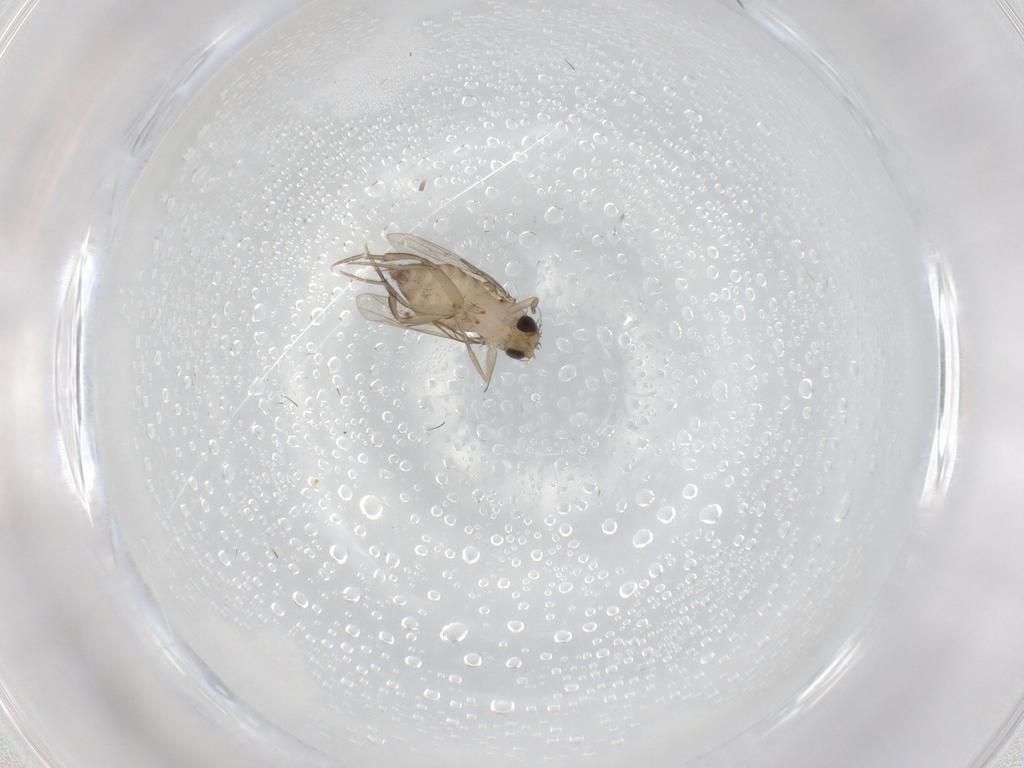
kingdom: Animalia
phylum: Arthropoda
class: Insecta
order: Diptera
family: Phoridae
